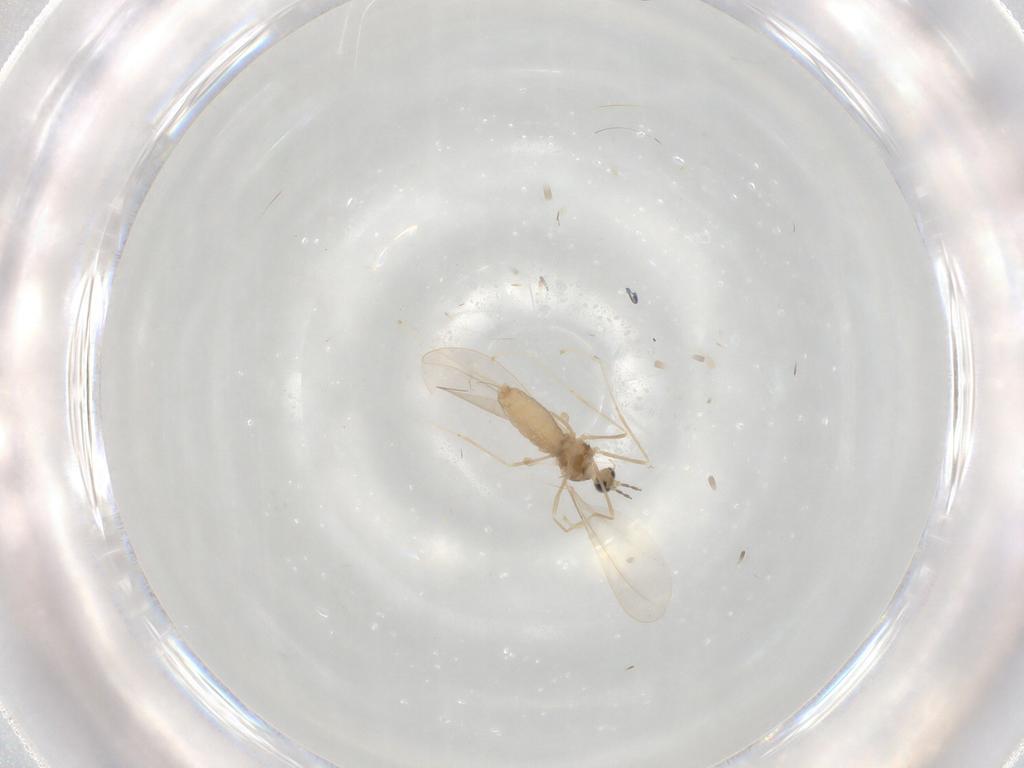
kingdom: Animalia
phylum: Arthropoda
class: Insecta
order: Diptera
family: Cecidomyiidae
